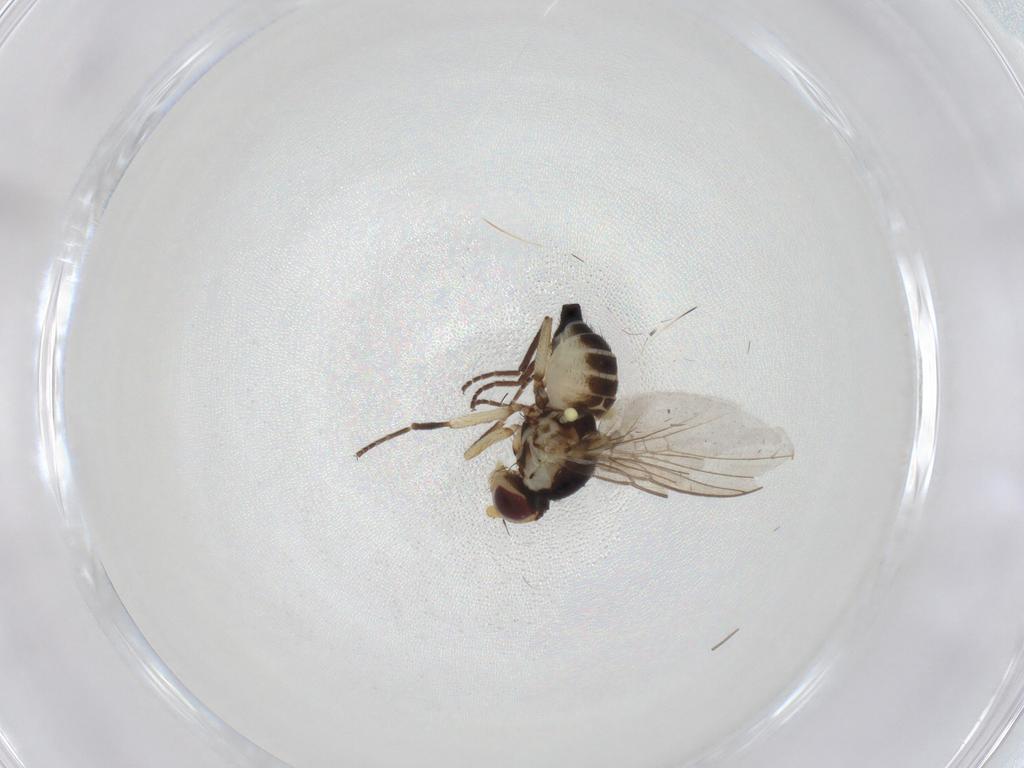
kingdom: Animalia
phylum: Arthropoda
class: Insecta
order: Diptera
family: Agromyzidae
